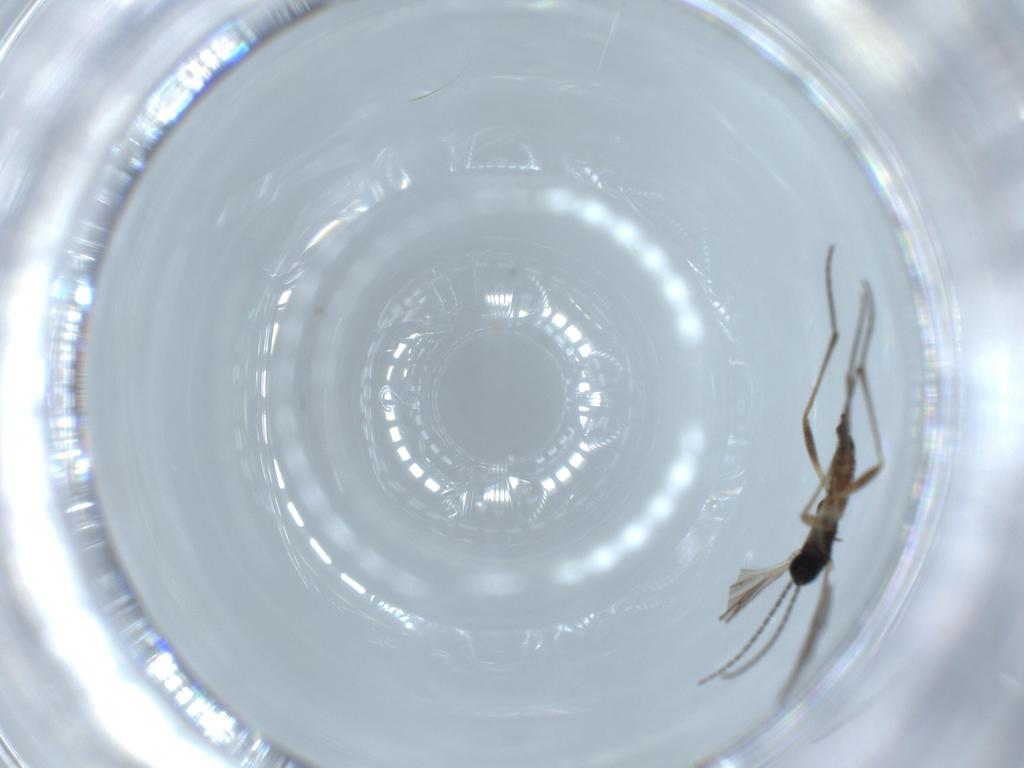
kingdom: Animalia
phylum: Arthropoda
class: Insecta
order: Diptera
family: Sciaridae
